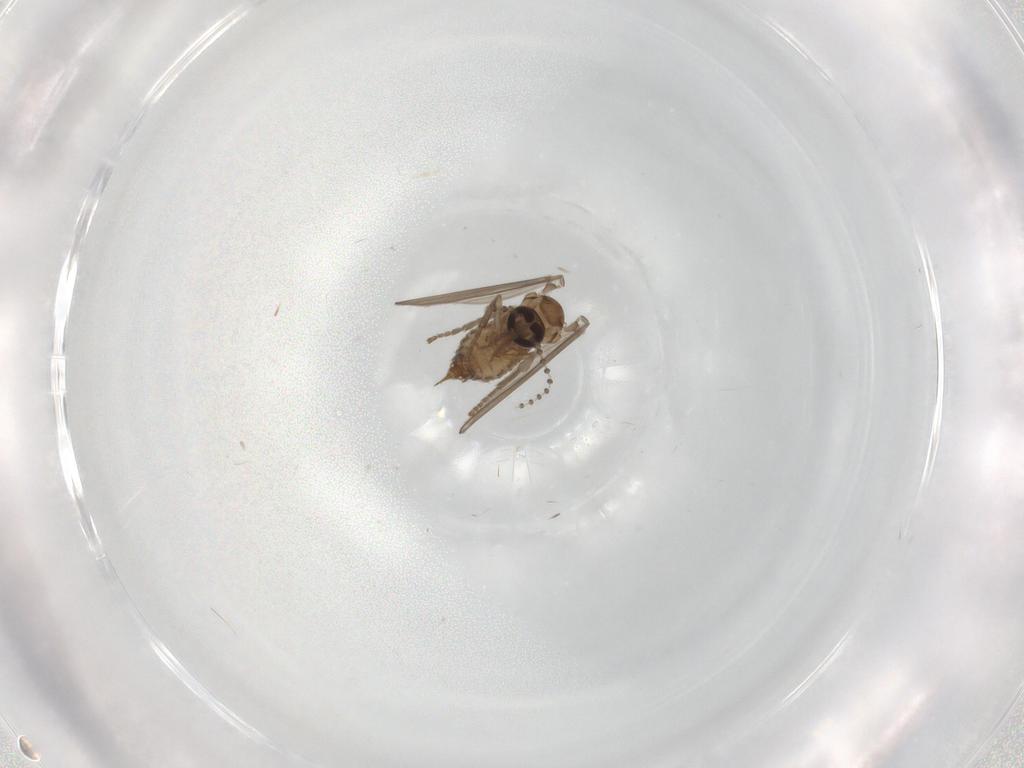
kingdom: Animalia
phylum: Arthropoda
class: Insecta
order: Diptera
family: Psychodidae
